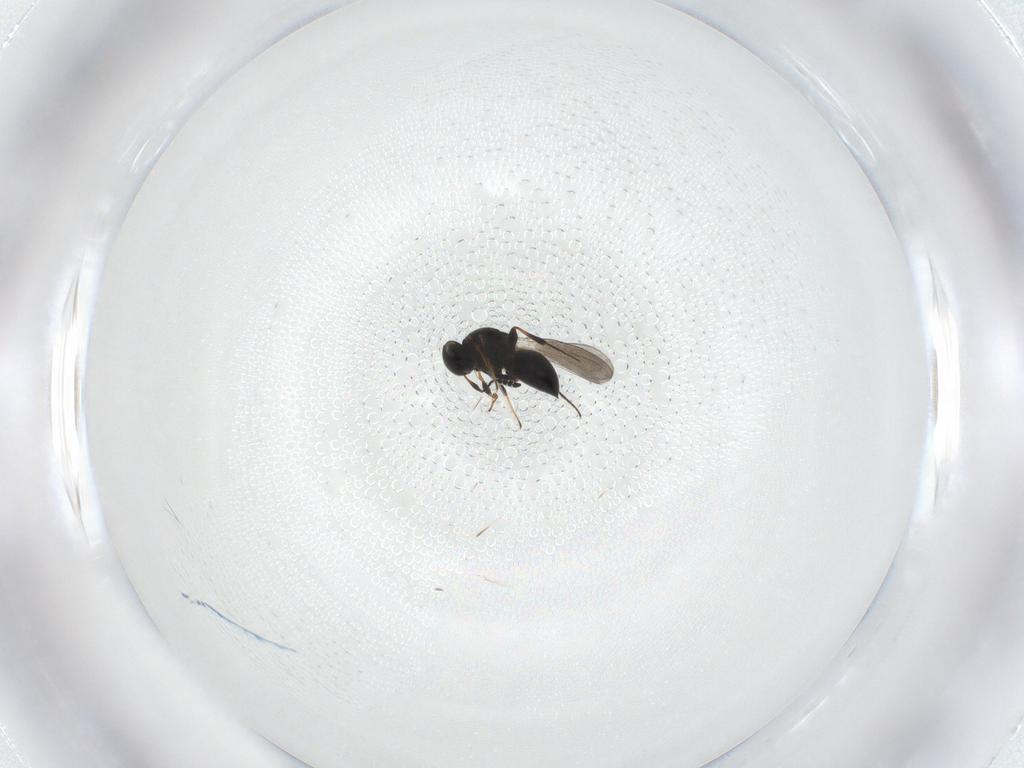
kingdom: Animalia
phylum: Arthropoda
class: Insecta
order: Hymenoptera
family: Platygastridae
